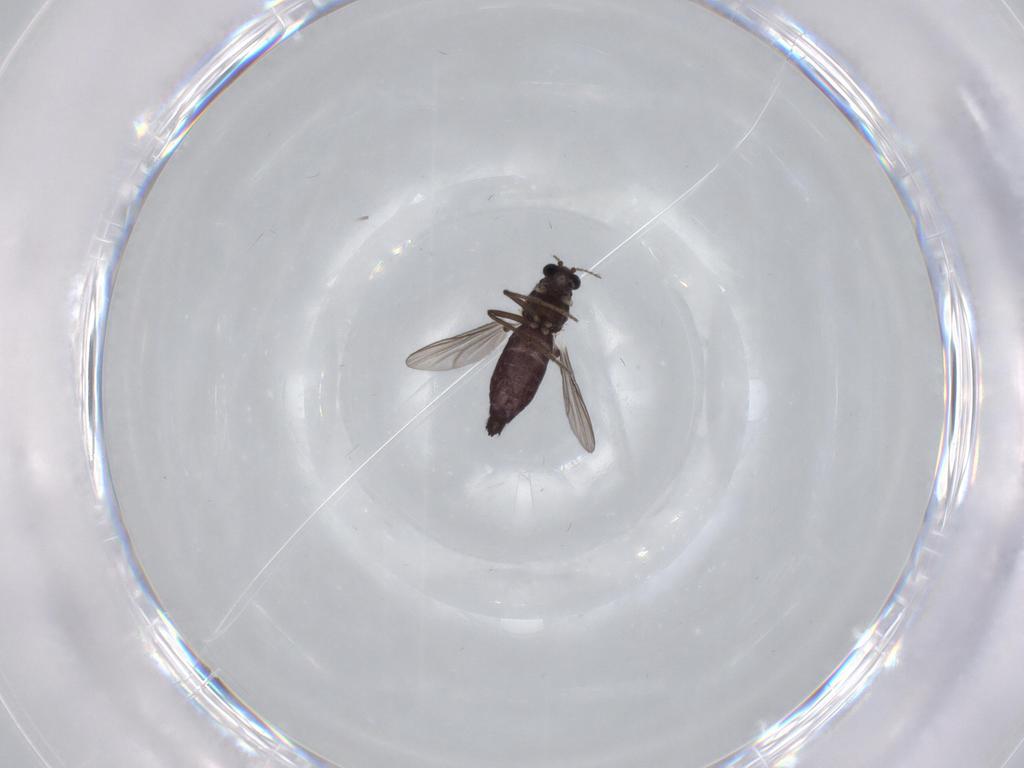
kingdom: Animalia
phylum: Arthropoda
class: Insecta
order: Diptera
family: Chironomidae
